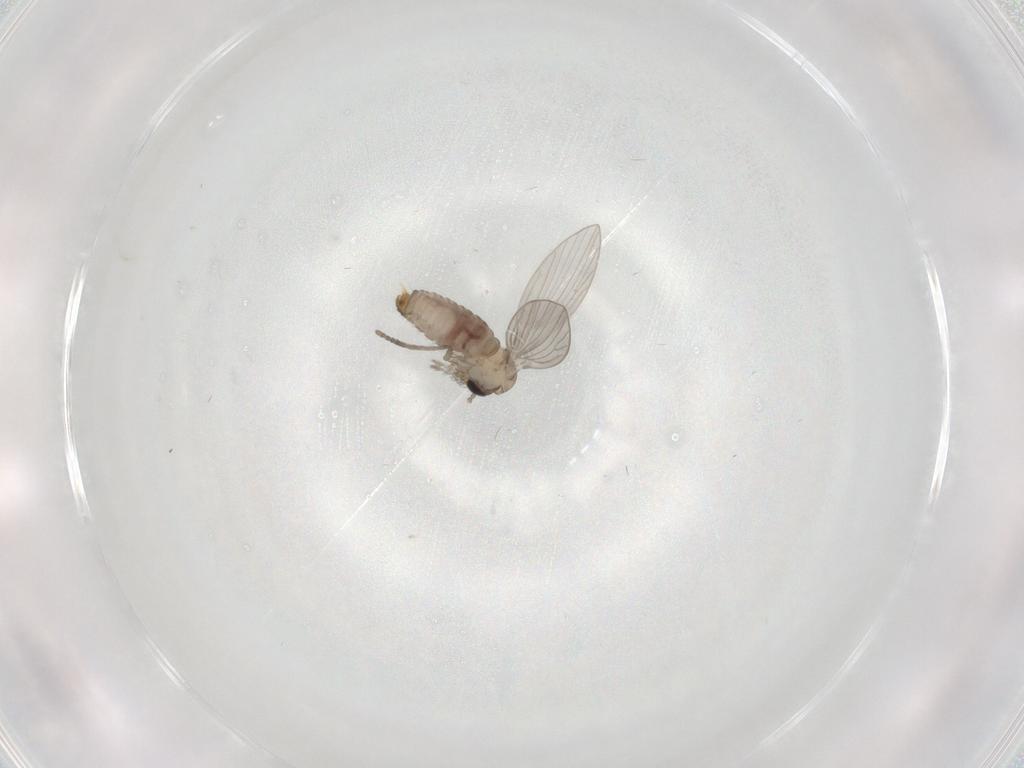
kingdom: Animalia
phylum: Arthropoda
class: Insecta
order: Diptera
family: Psychodidae
